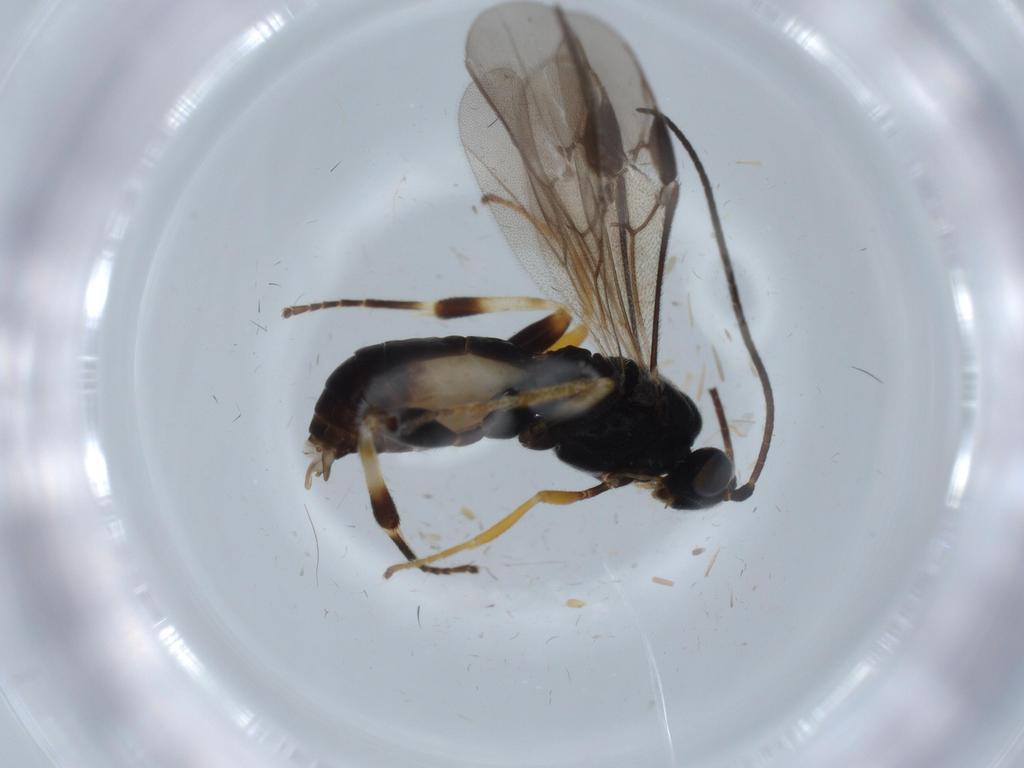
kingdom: Animalia
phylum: Arthropoda
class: Insecta
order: Hymenoptera
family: Braconidae
